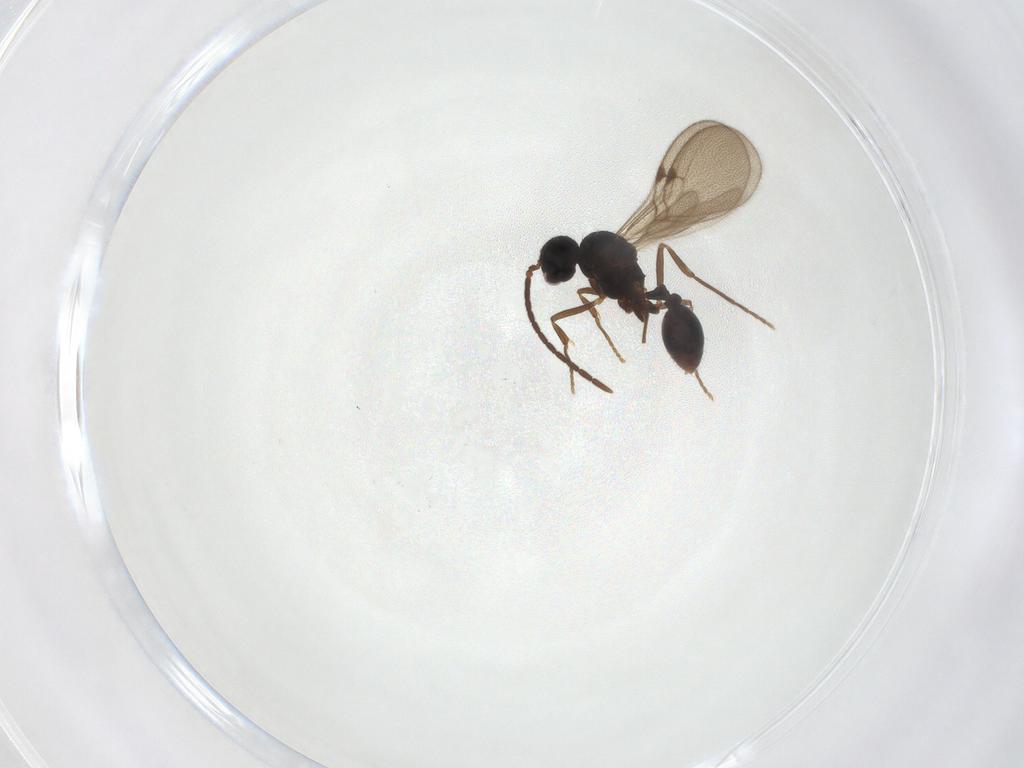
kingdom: Animalia
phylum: Arthropoda
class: Insecta
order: Hymenoptera
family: Formicidae
